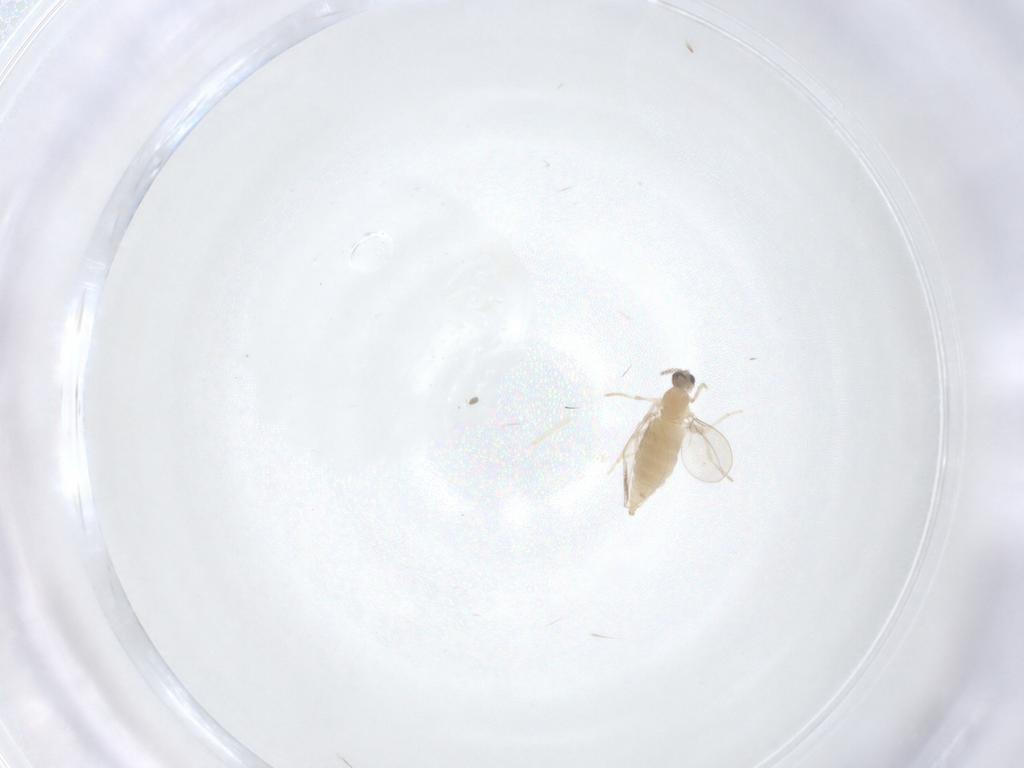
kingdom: Animalia
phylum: Arthropoda
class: Insecta
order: Diptera
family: Cecidomyiidae
